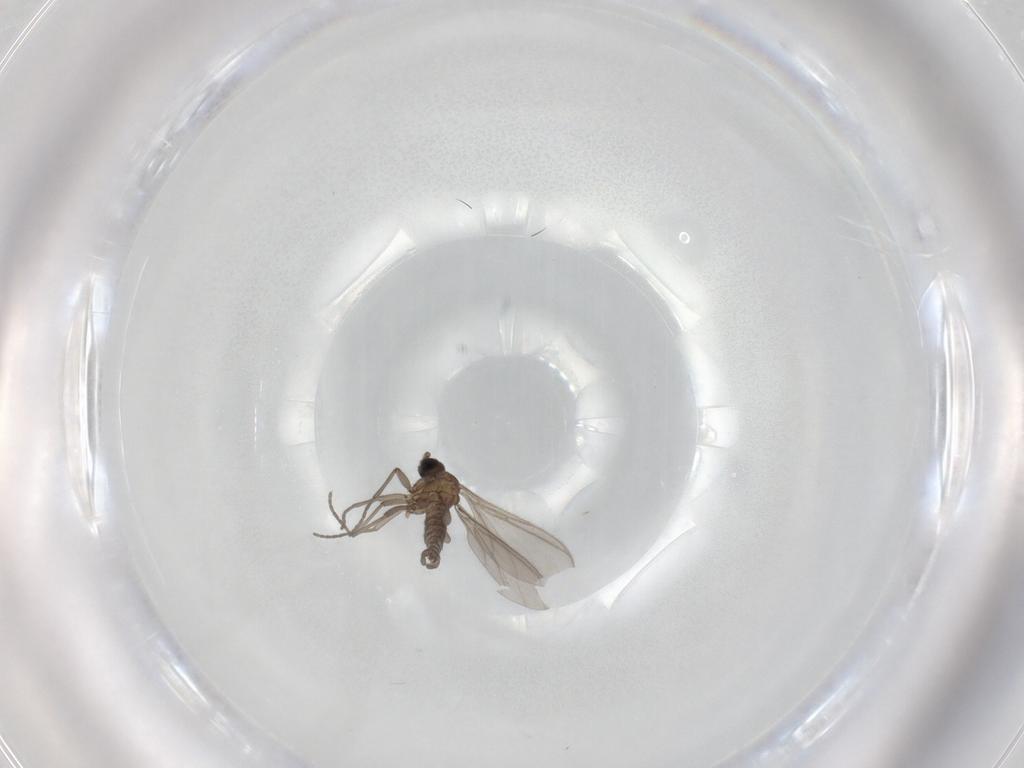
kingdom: Animalia
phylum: Arthropoda
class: Insecta
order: Diptera
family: Sciaridae
